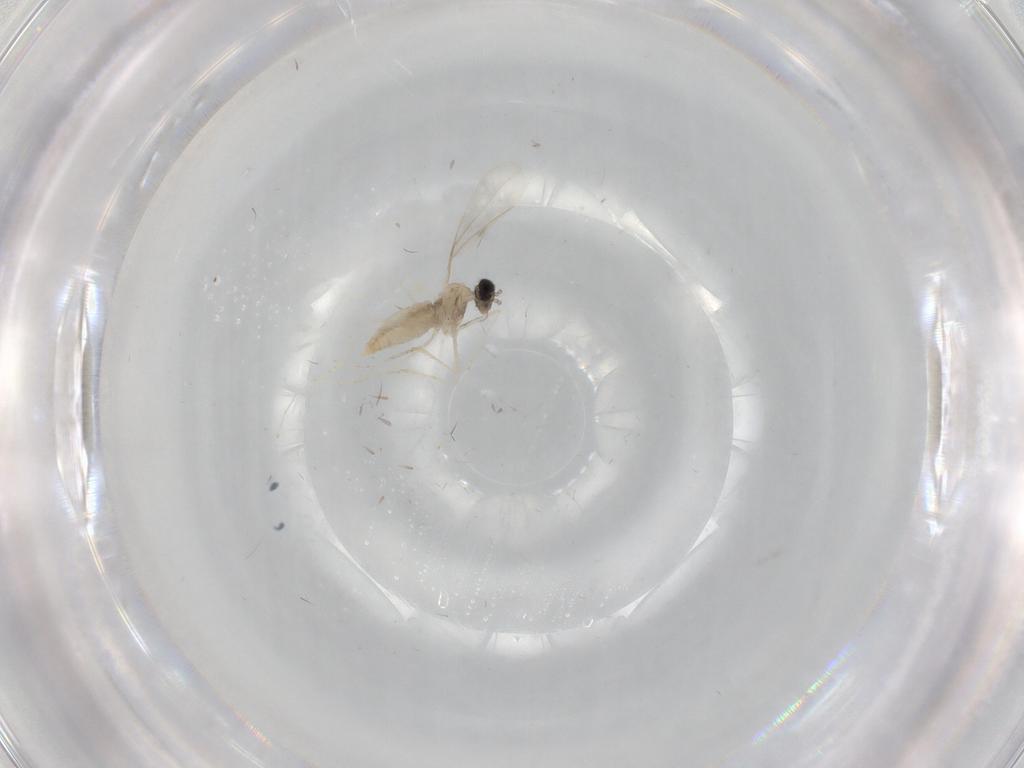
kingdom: Animalia
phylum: Arthropoda
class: Insecta
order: Diptera
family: Chironomidae
